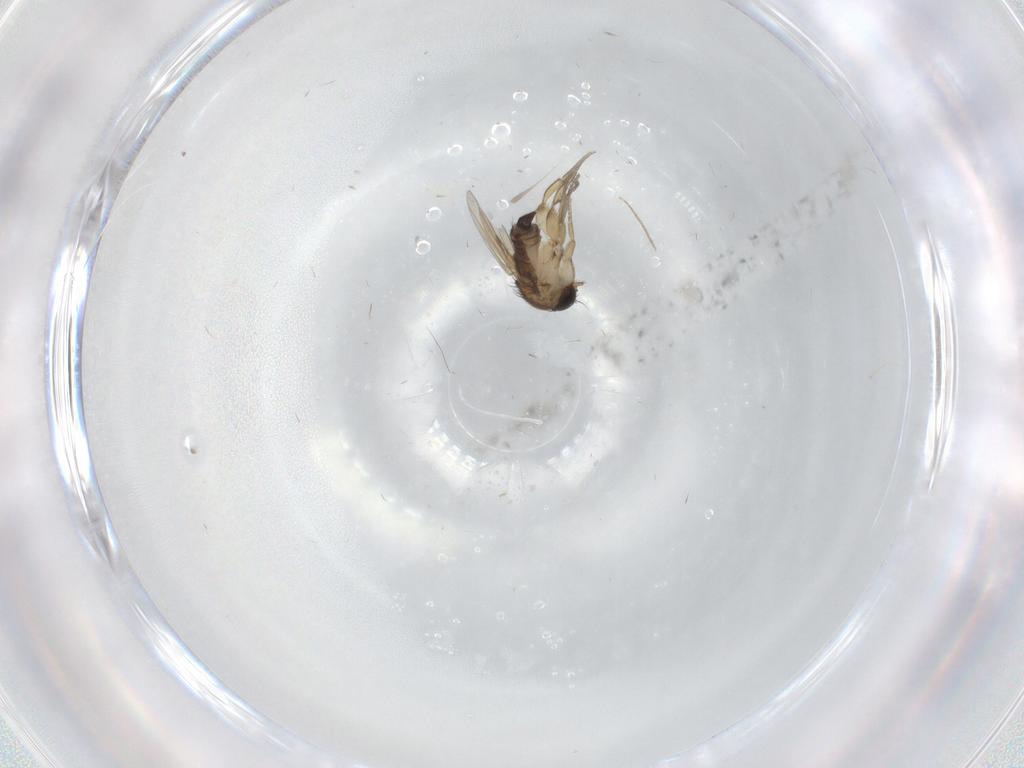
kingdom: Animalia
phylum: Arthropoda
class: Insecta
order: Diptera
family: Phoridae
